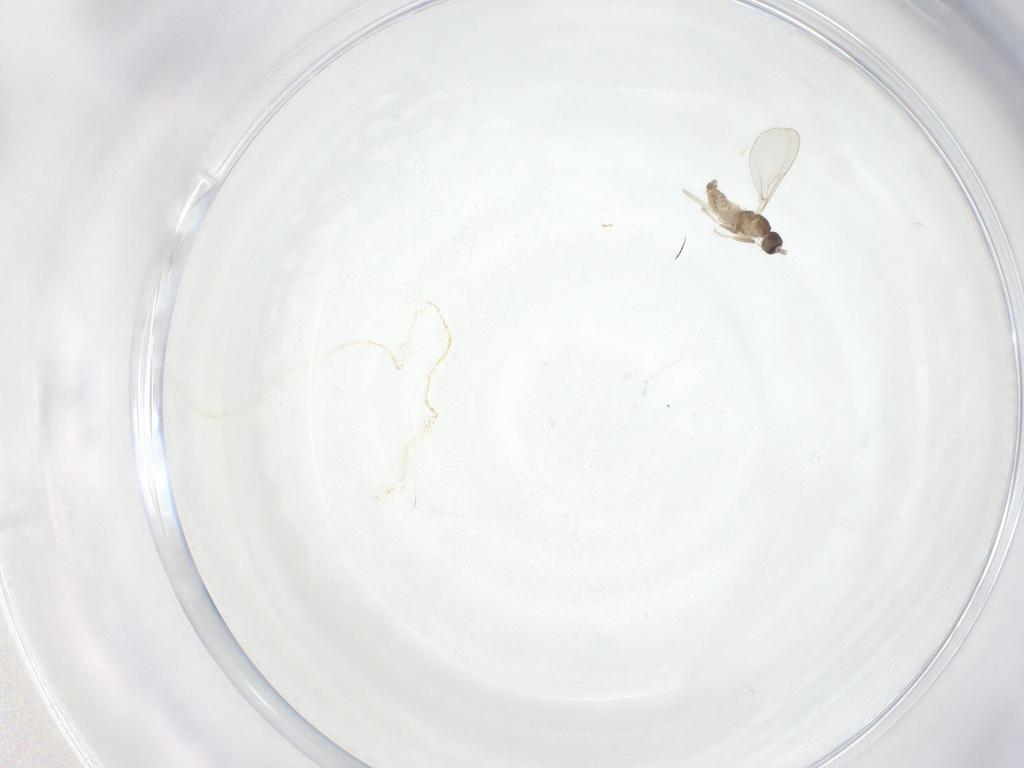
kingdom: Animalia
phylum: Arthropoda
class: Insecta
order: Diptera
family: Cecidomyiidae
